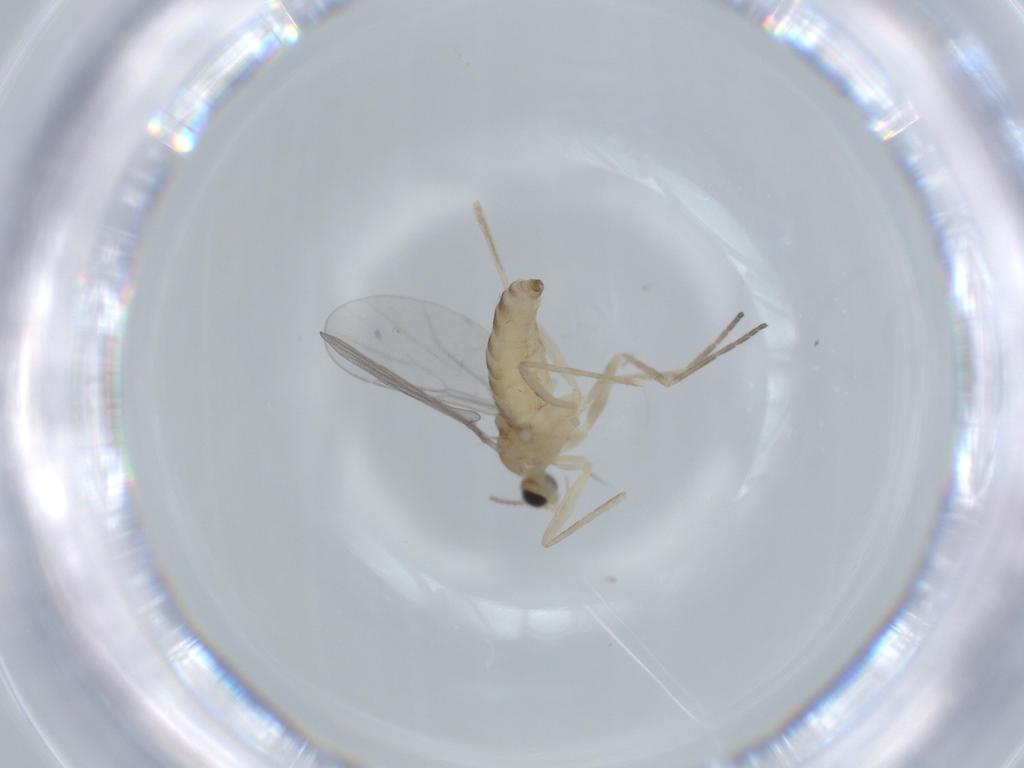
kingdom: Animalia
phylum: Arthropoda
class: Insecta
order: Diptera
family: Cecidomyiidae
